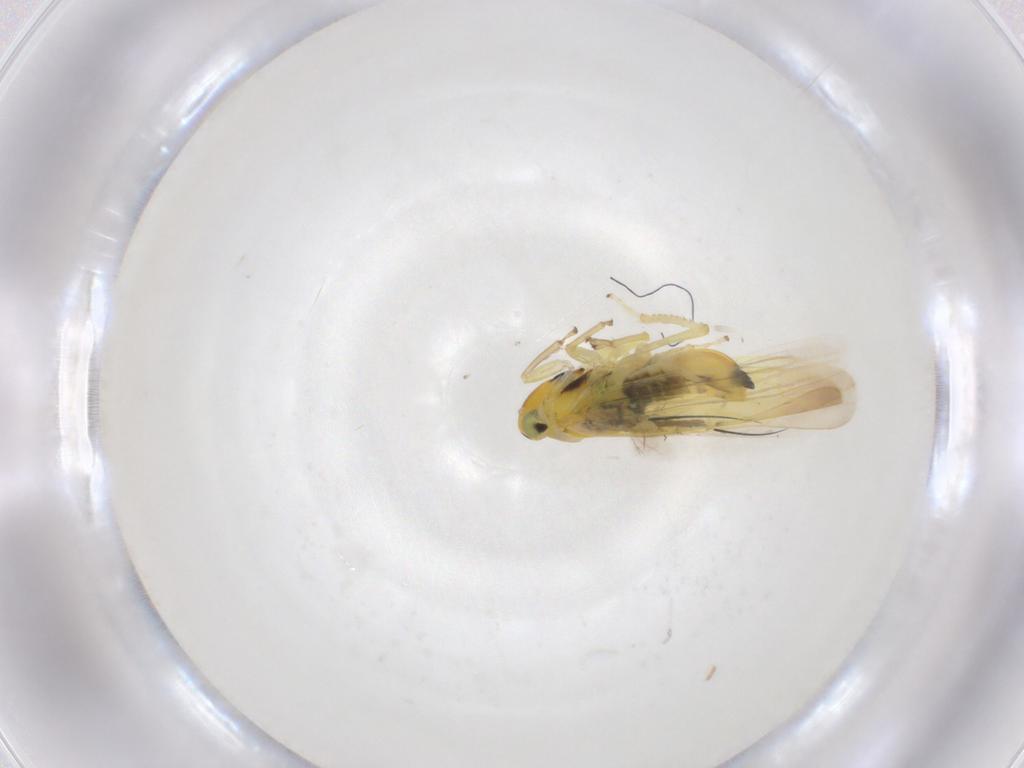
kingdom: Animalia
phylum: Arthropoda
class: Insecta
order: Hemiptera
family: Cicadellidae
